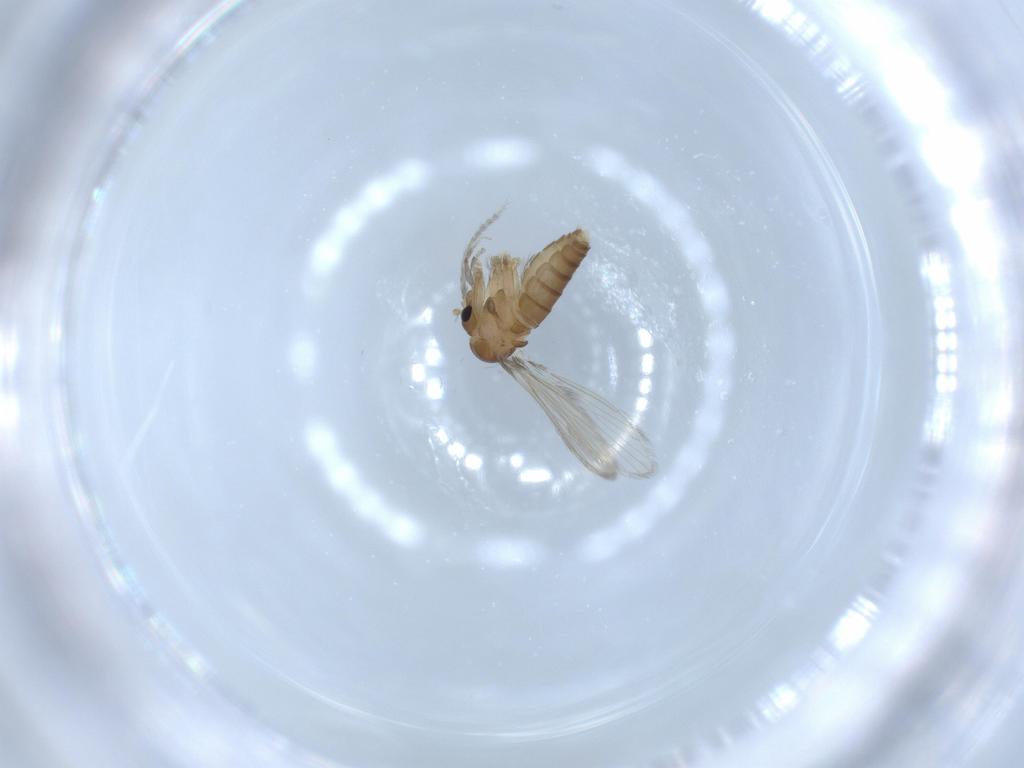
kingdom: Animalia
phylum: Arthropoda
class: Insecta
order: Diptera
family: Psychodidae
